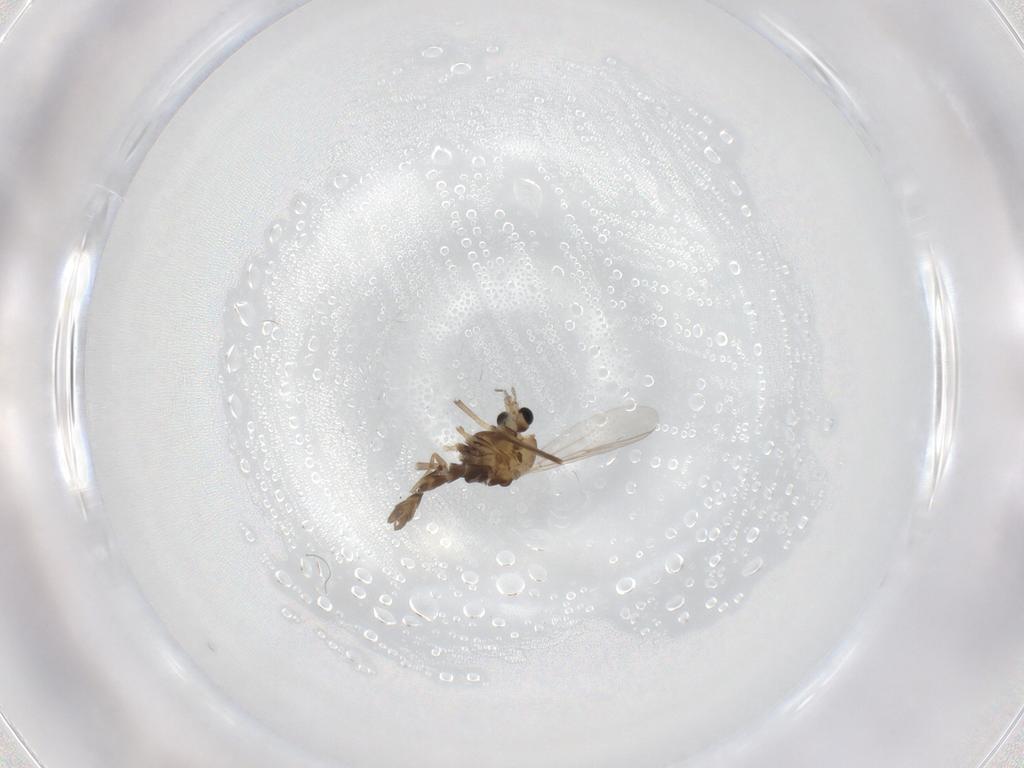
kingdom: Animalia
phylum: Arthropoda
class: Insecta
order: Diptera
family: Chironomidae
